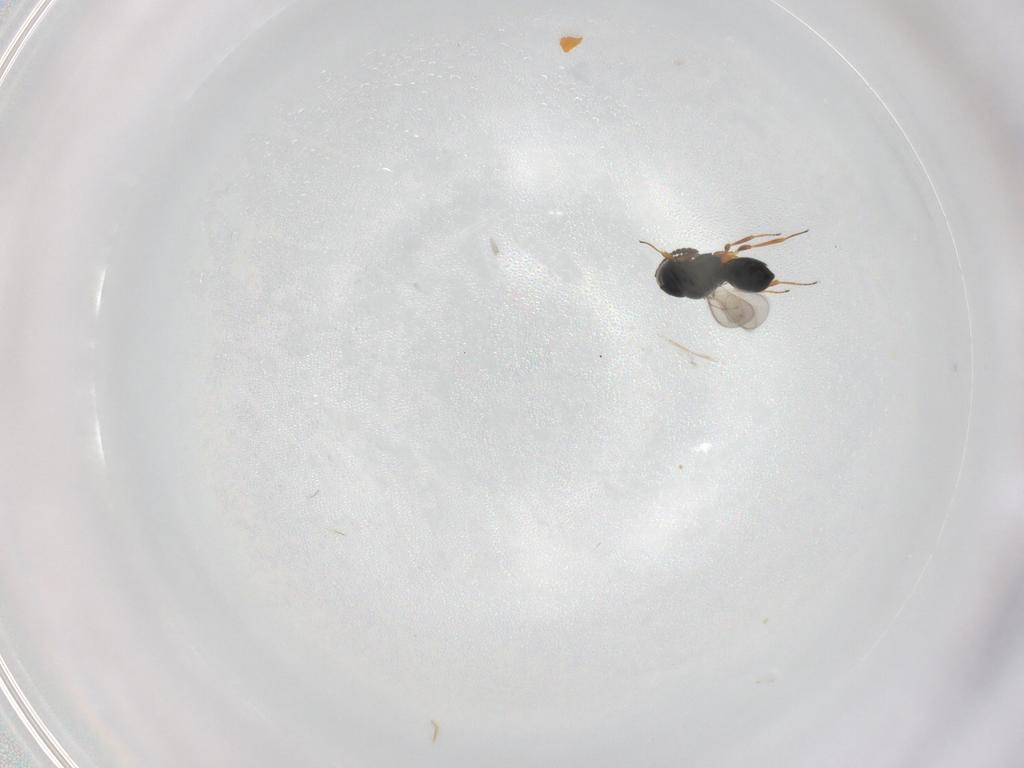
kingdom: Animalia
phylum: Arthropoda
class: Insecta
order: Hymenoptera
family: Scelionidae
